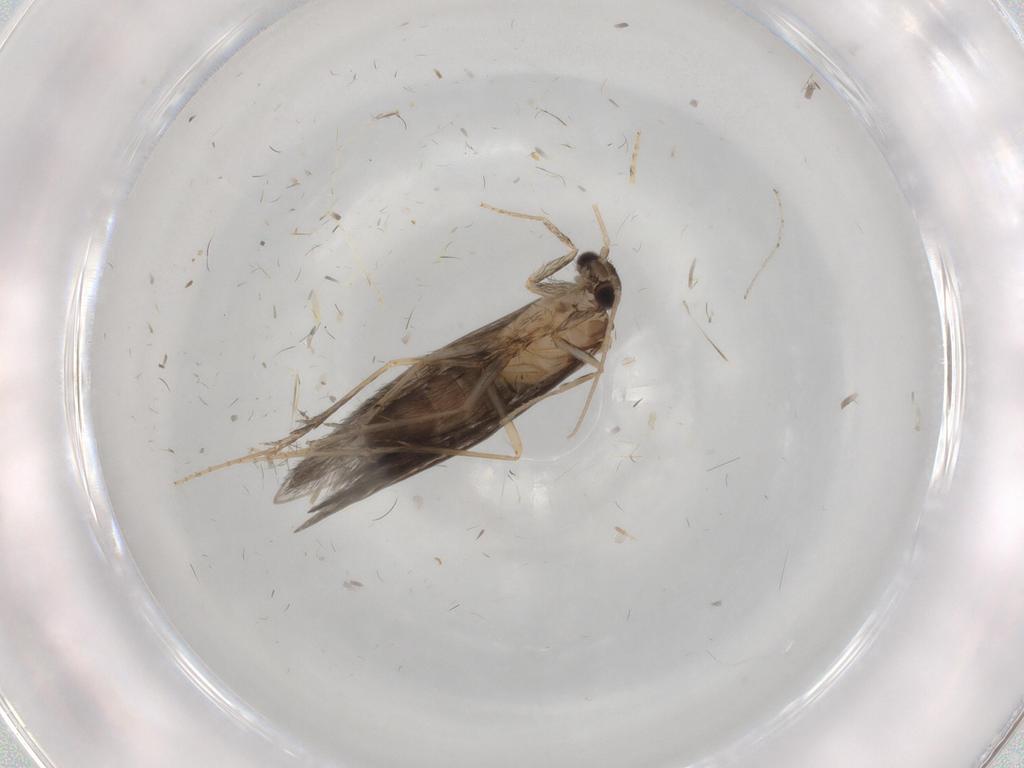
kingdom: Animalia
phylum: Arthropoda
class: Insecta
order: Trichoptera
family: Hydroptilidae
